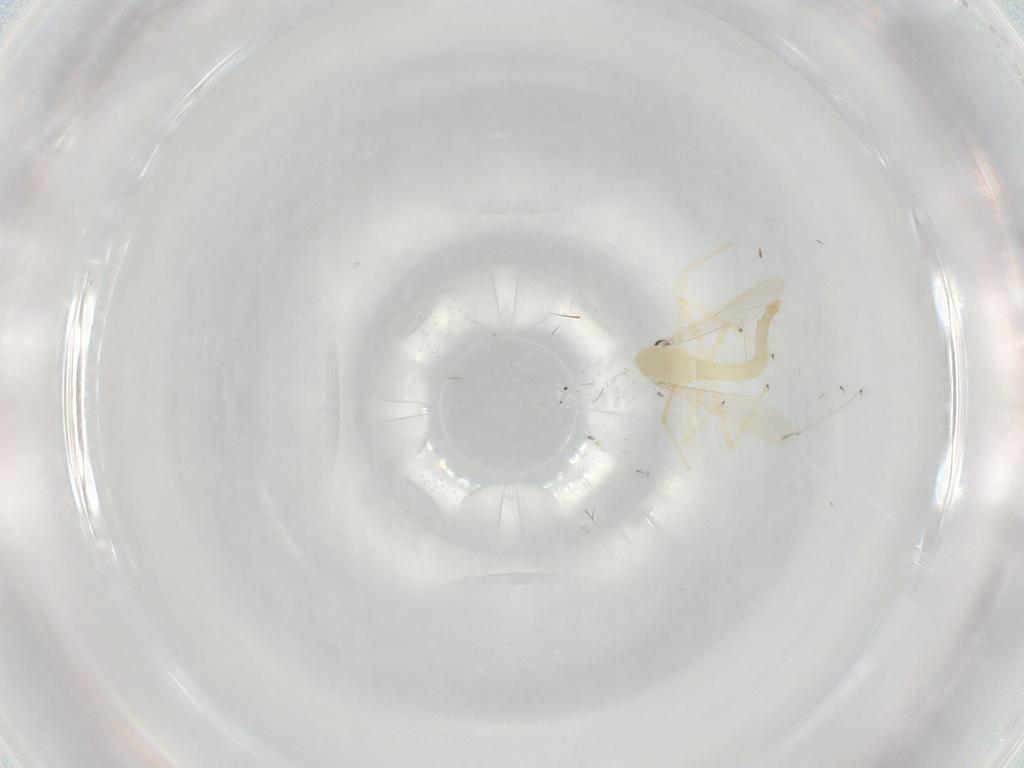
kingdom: Animalia
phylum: Arthropoda
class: Insecta
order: Diptera
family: Chironomidae
